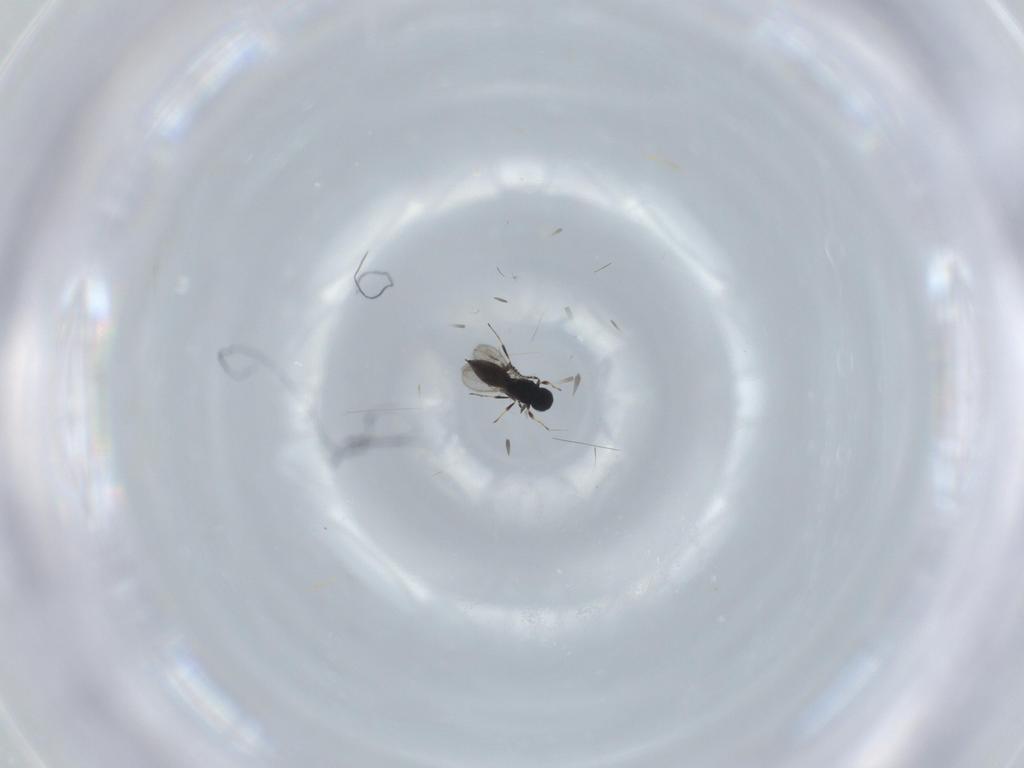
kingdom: Animalia
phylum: Arthropoda
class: Insecta
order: Hymenoptera
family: Scelionidae
